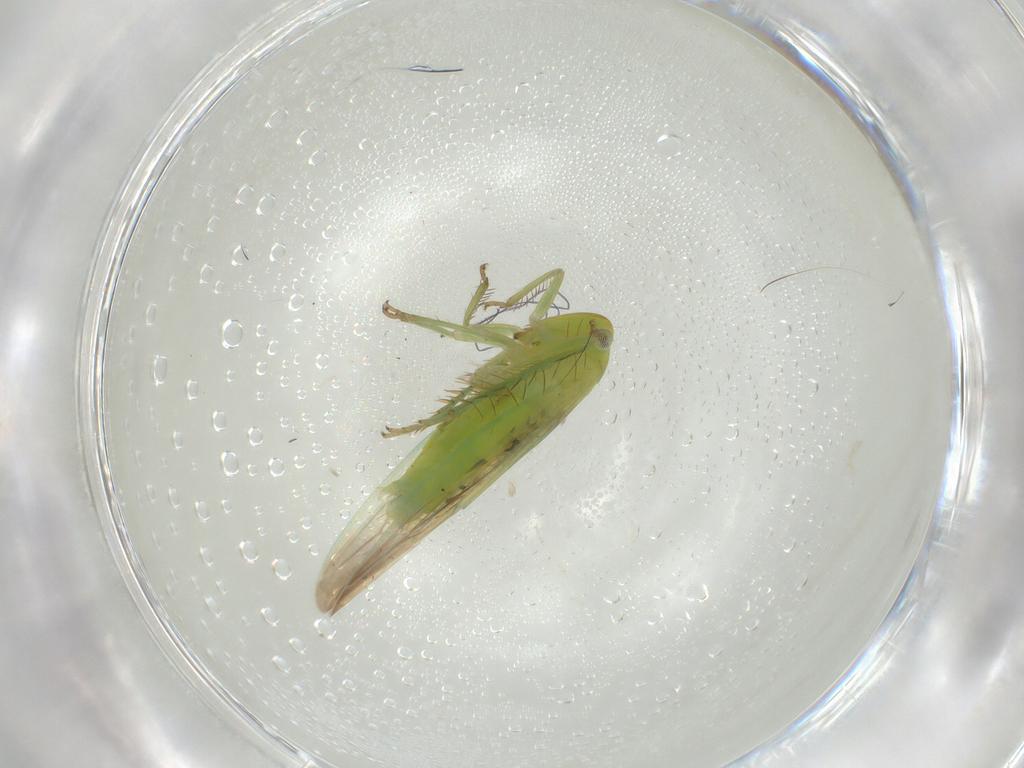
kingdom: Animalia
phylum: Arthropoda
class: Insecta
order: Hemiptera
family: Cicadellidae
